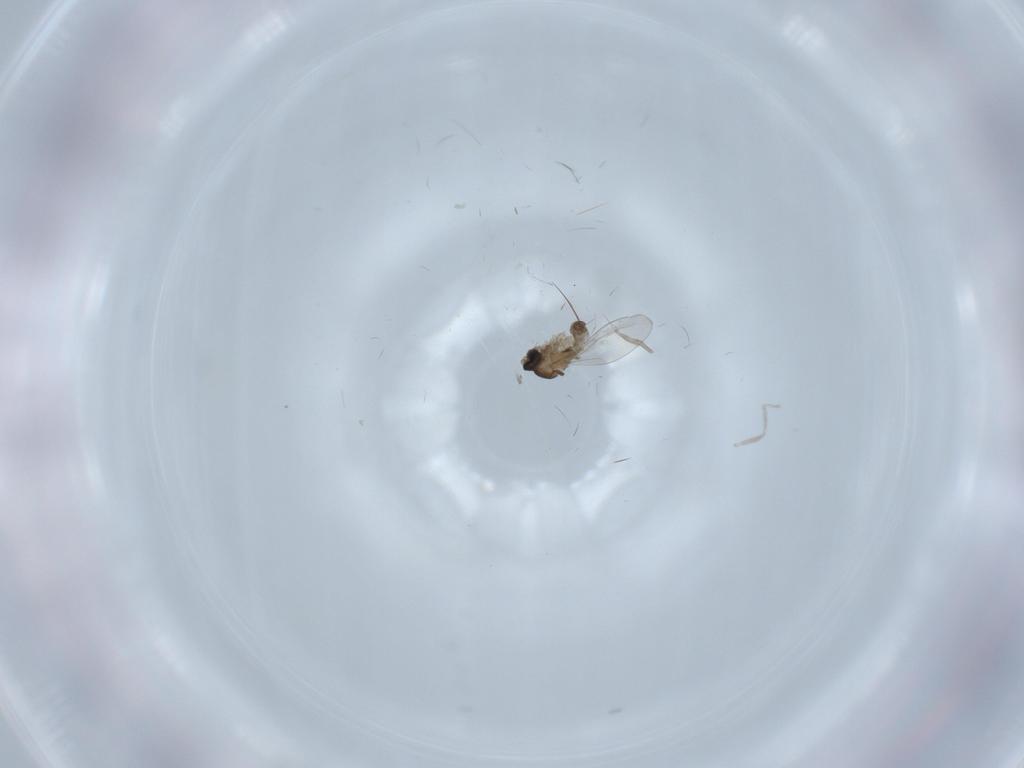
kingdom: Animalia
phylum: Arthropoda
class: Insecta
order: Diptera
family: Cecidomyiidae
